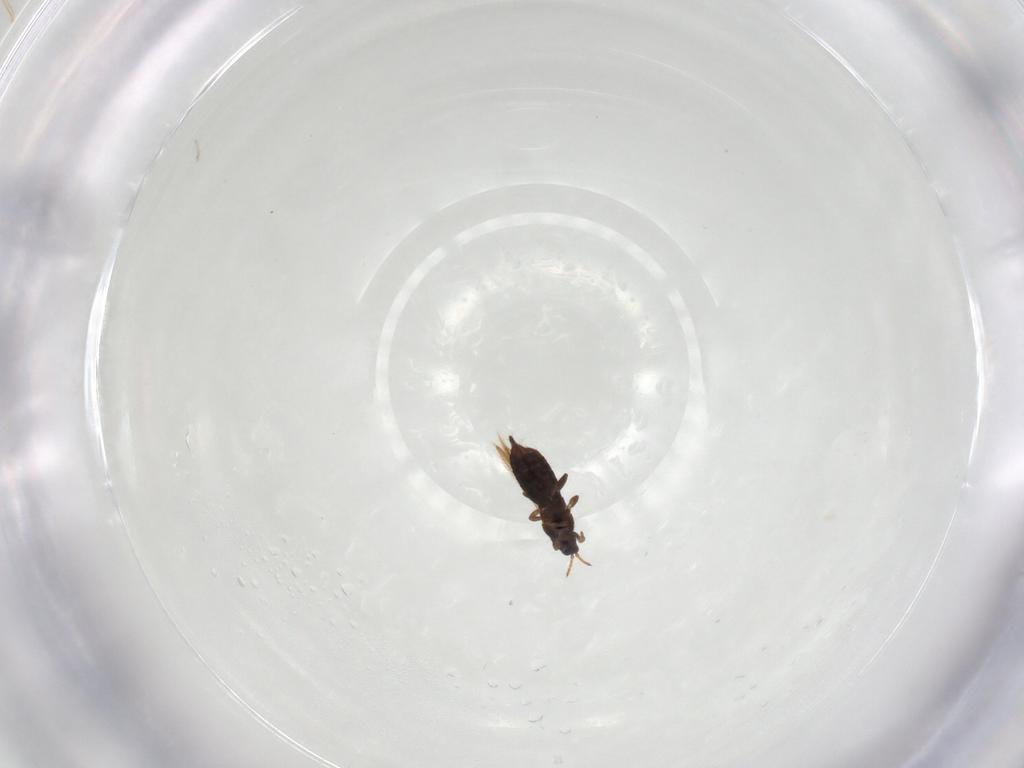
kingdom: Animalia
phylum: Arthropoda
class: Insecta
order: Thysanoptera
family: Thripidae
